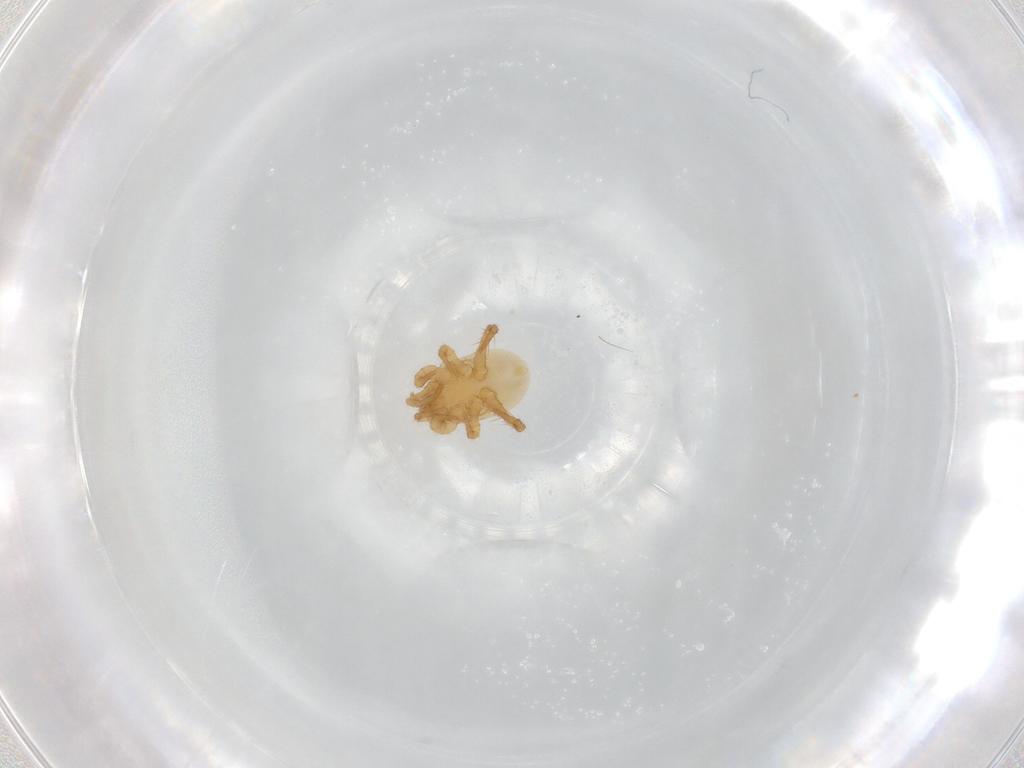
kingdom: Animalia
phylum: Arthropoda
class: Arachnida
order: Mesostigmata
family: Parasitidae
